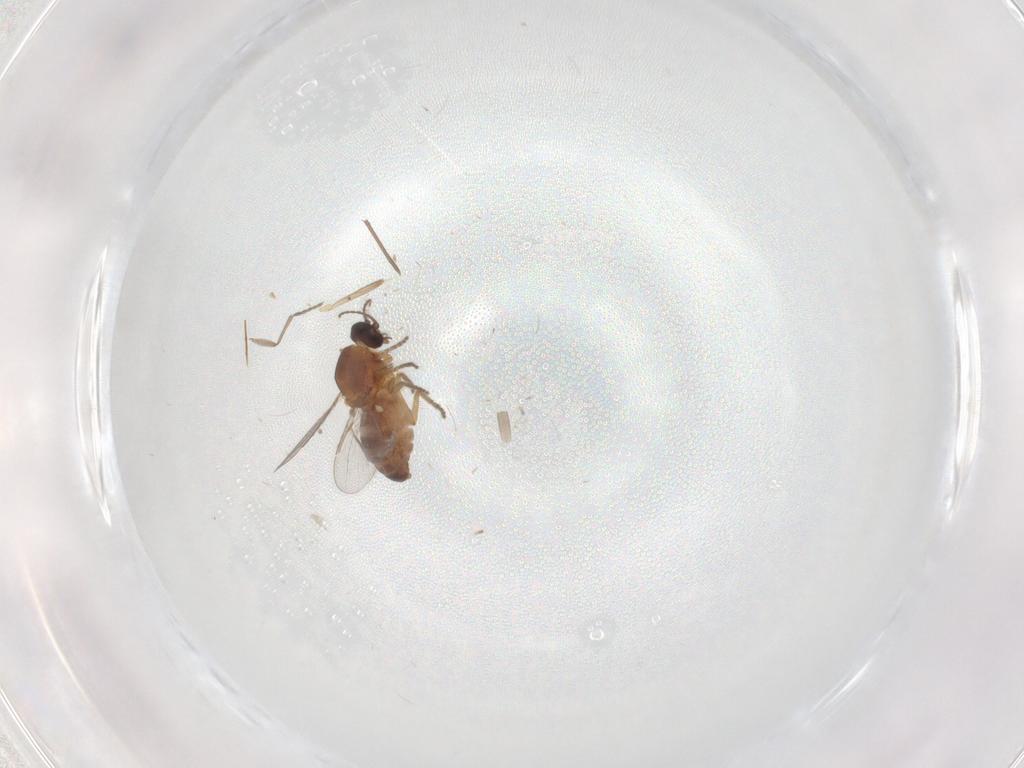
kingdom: Animalia
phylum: Arthropoda
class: Insecta
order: Diptera
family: Ceratopogonidae
